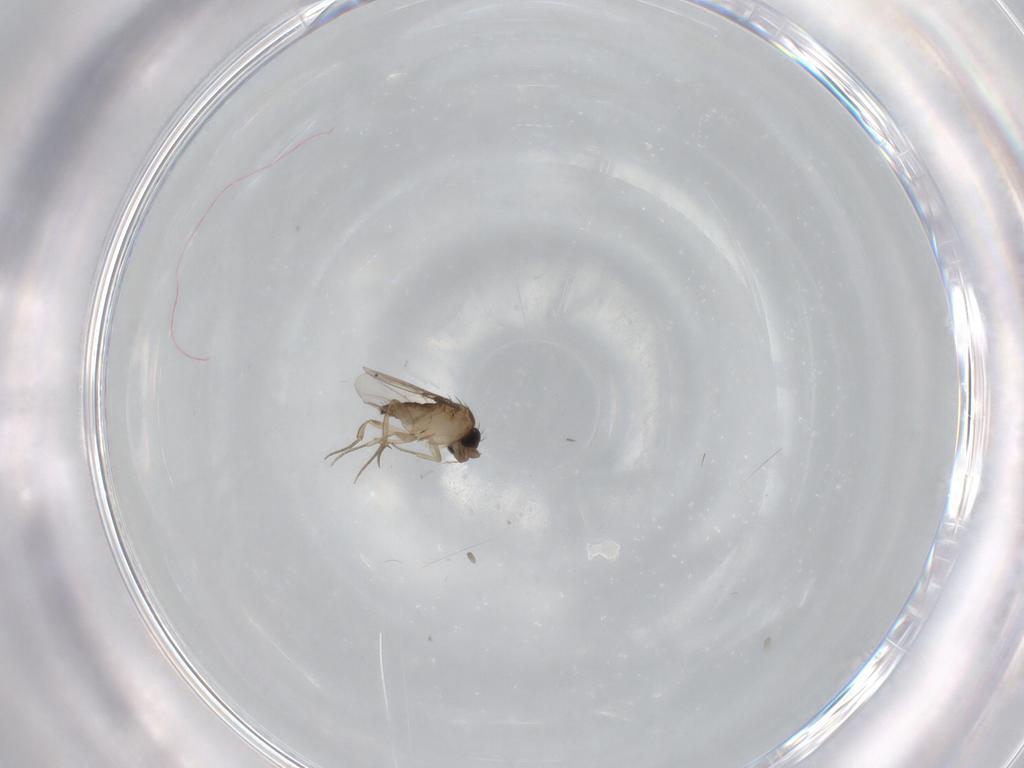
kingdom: Animalia
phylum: Arthropoda
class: Insecta
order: Diptera
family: Phoridae
